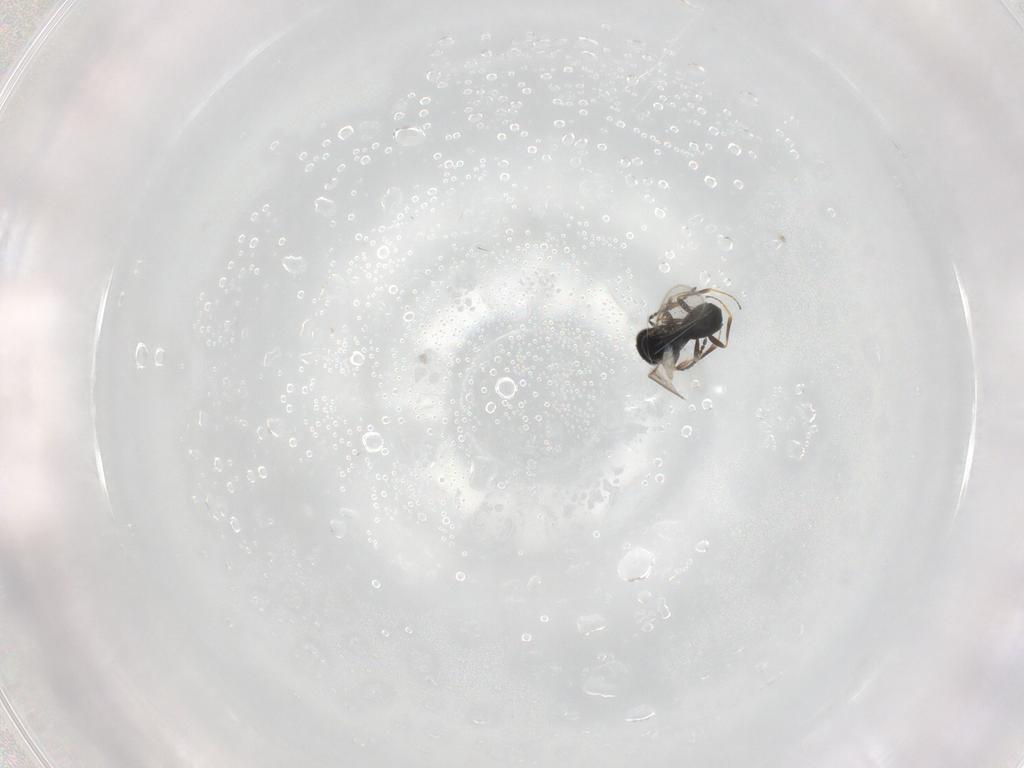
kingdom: Animalia
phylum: Arthropoda
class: Insecta
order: Hymenoptera
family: Scelionidae
